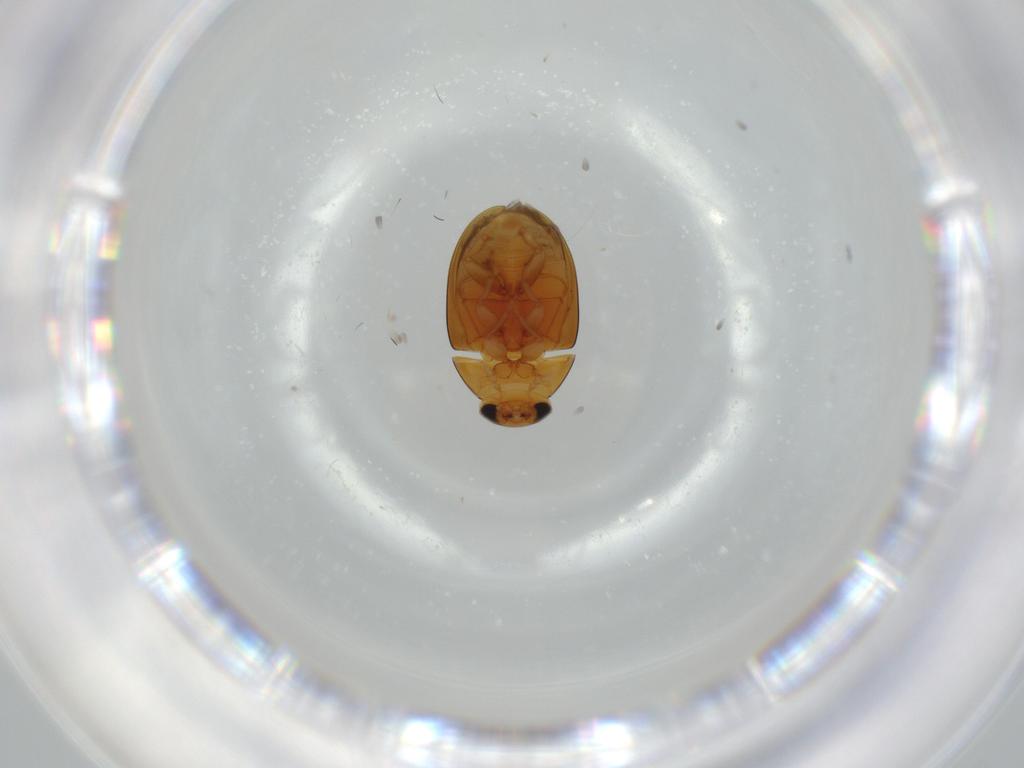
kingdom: Animalia
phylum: Arthropoda
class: Insecta
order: Coleoptera
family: Phalacridae
